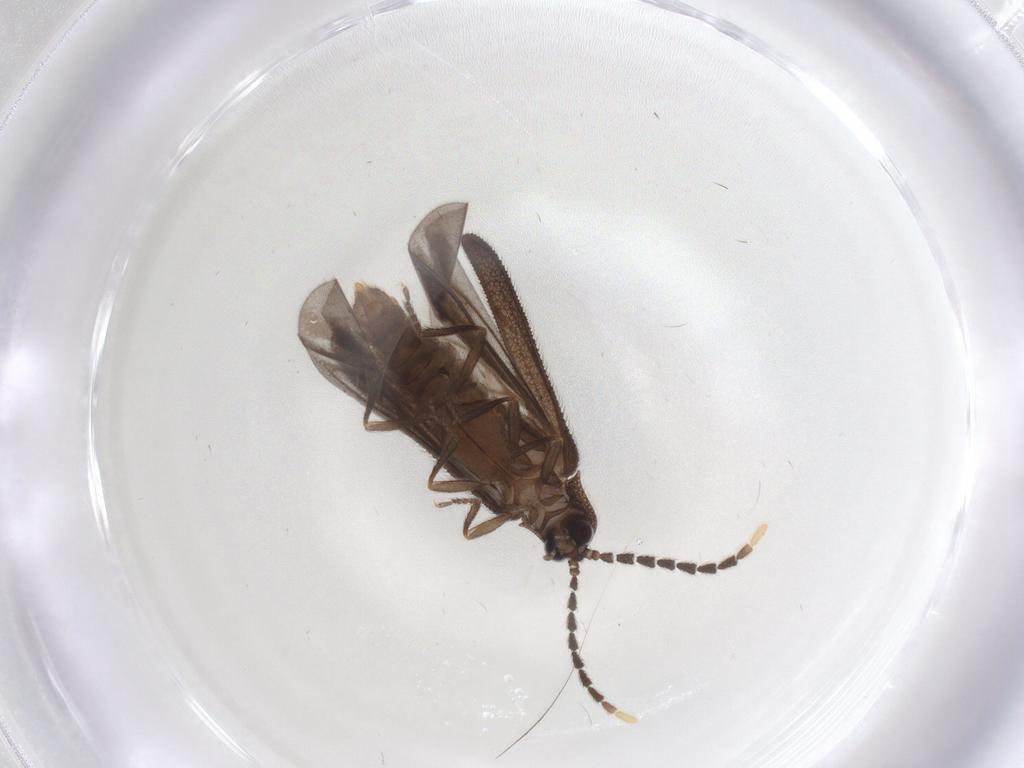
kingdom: Animalia
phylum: Arthropoda
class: Insecta
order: Coleoptera
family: Lycidae
